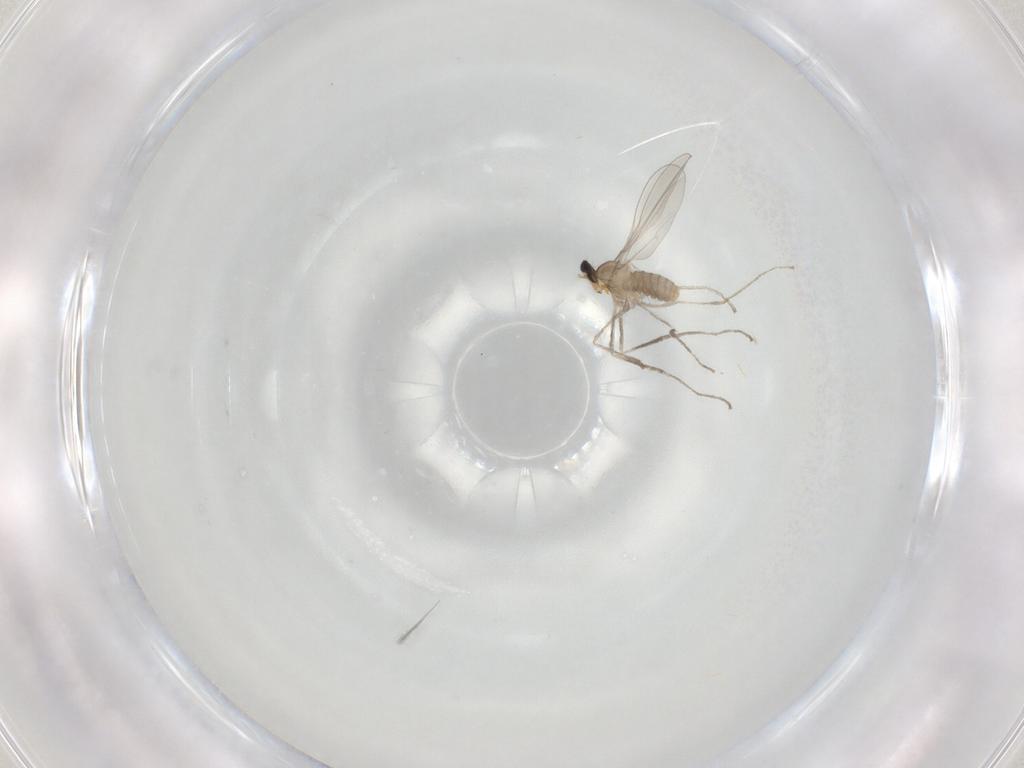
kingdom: Animalia
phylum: Arthropoda
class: Insecta
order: Diptera
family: Cecidomyiidae
